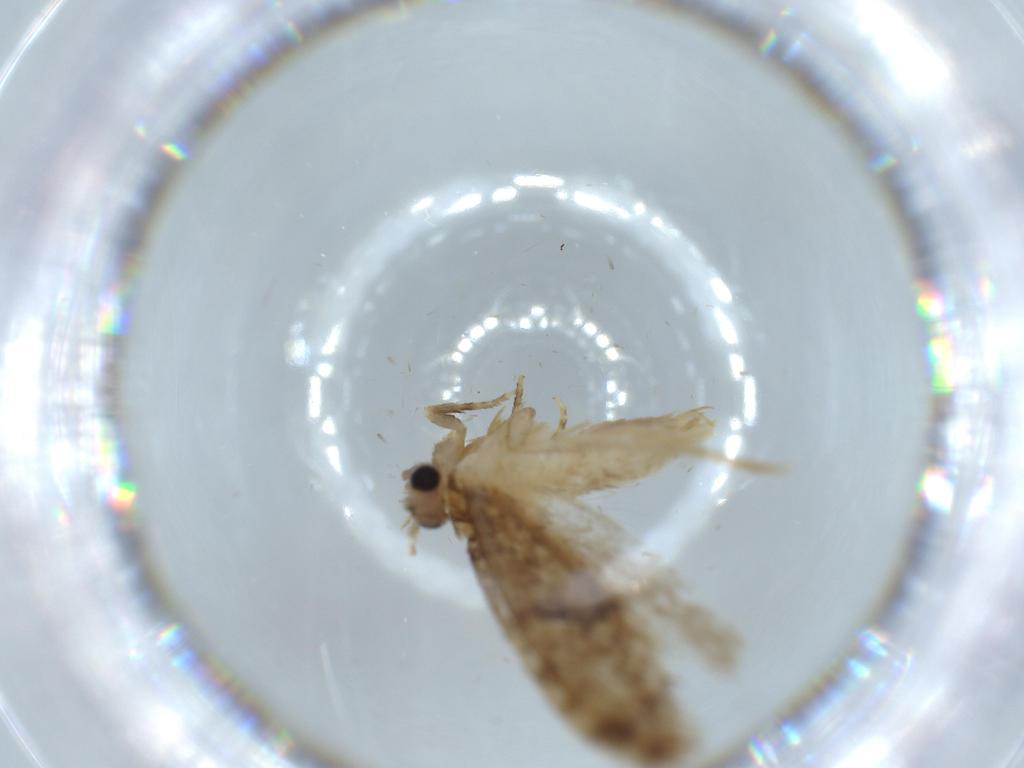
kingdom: Animalia
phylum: Arthropoda
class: Insecta
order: Lepidoptera
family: Tineidae
